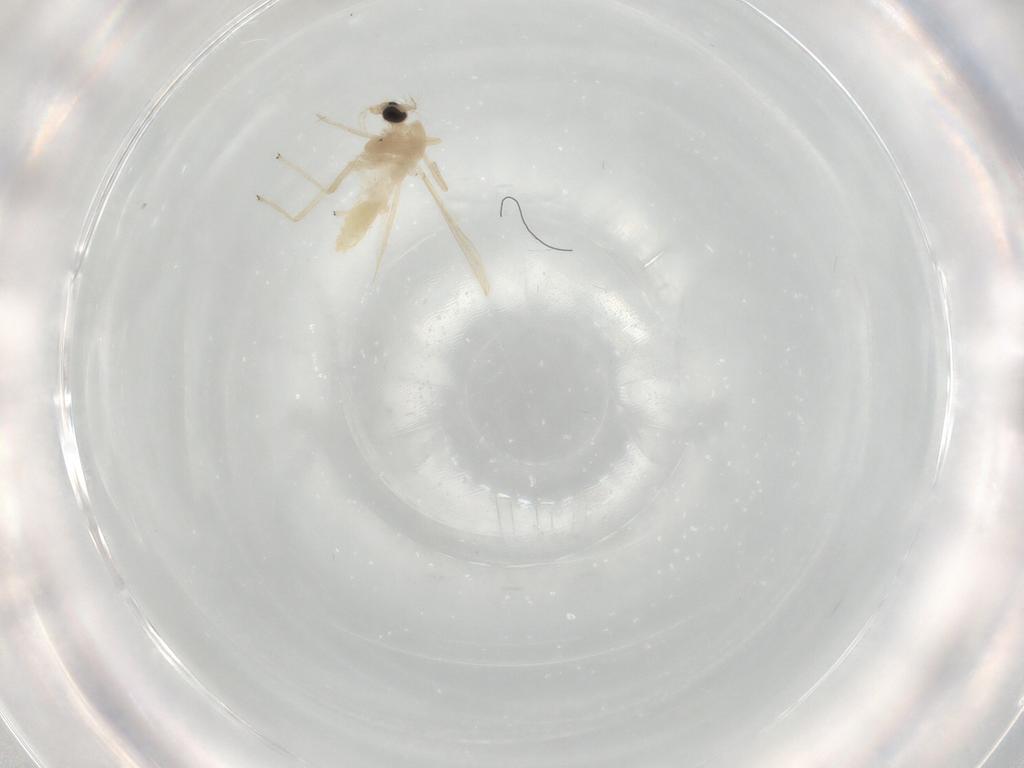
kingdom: Animalia
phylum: Arthropoda
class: Insecta
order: Diptera
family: Chironomidae
